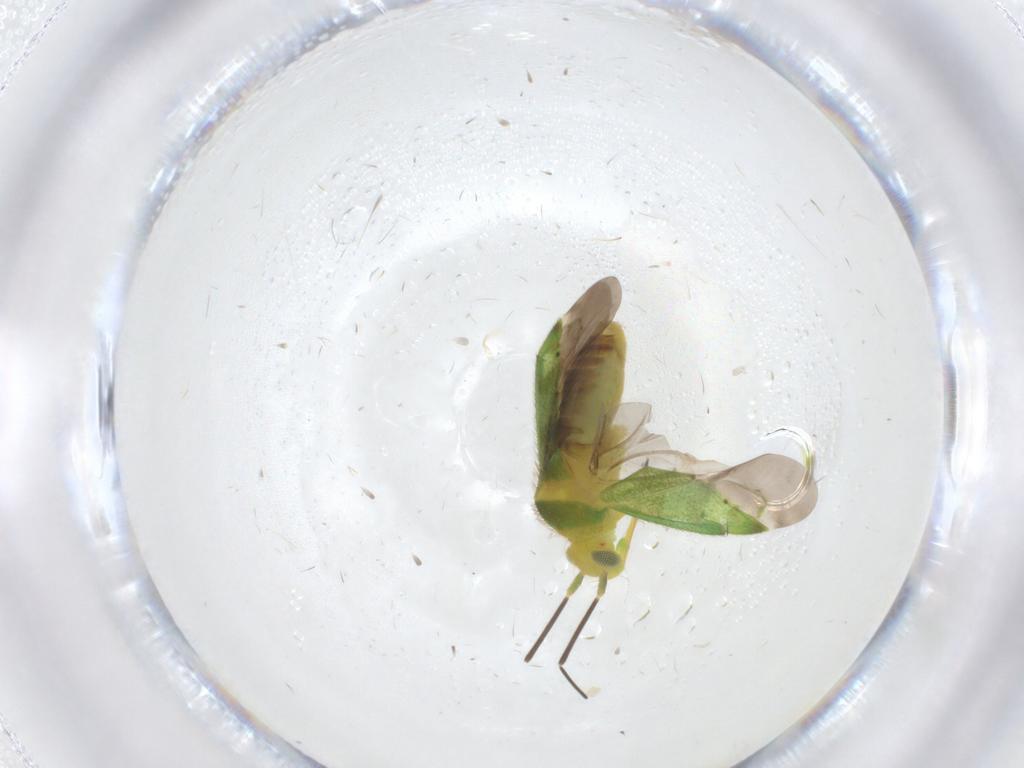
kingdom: Animalia
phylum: Arthropoda
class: Insecta
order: Hemiptera
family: Miridae
